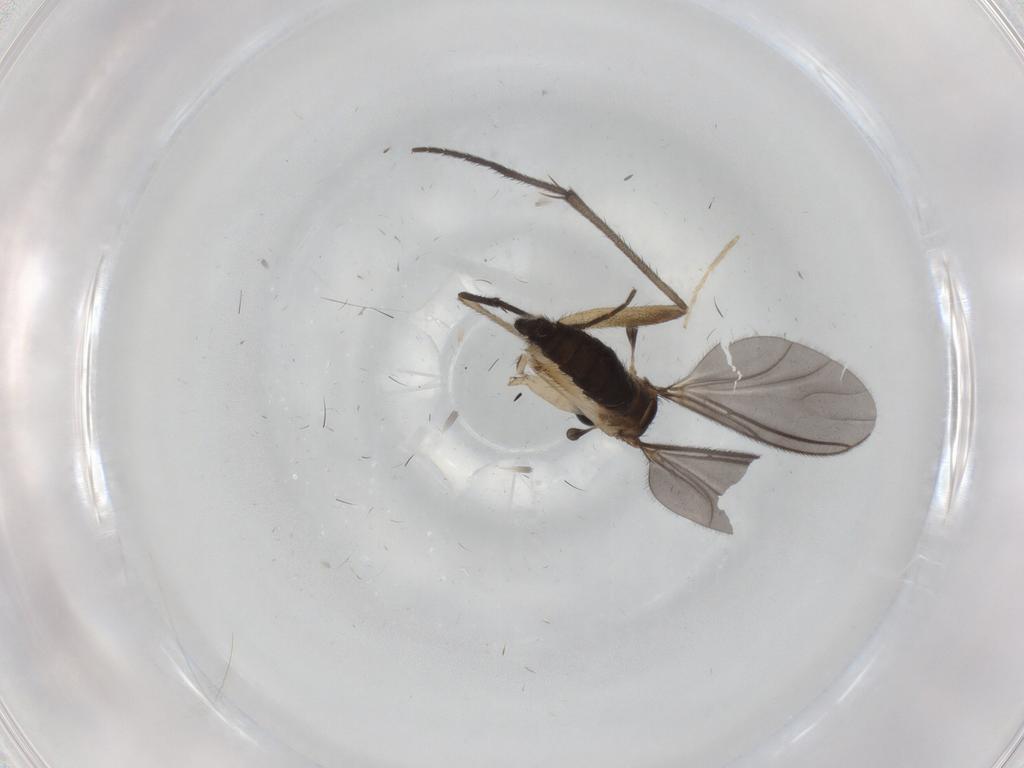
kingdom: Animalia
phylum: Arthropoda
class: Insecta
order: Diptera
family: Sciaridae
